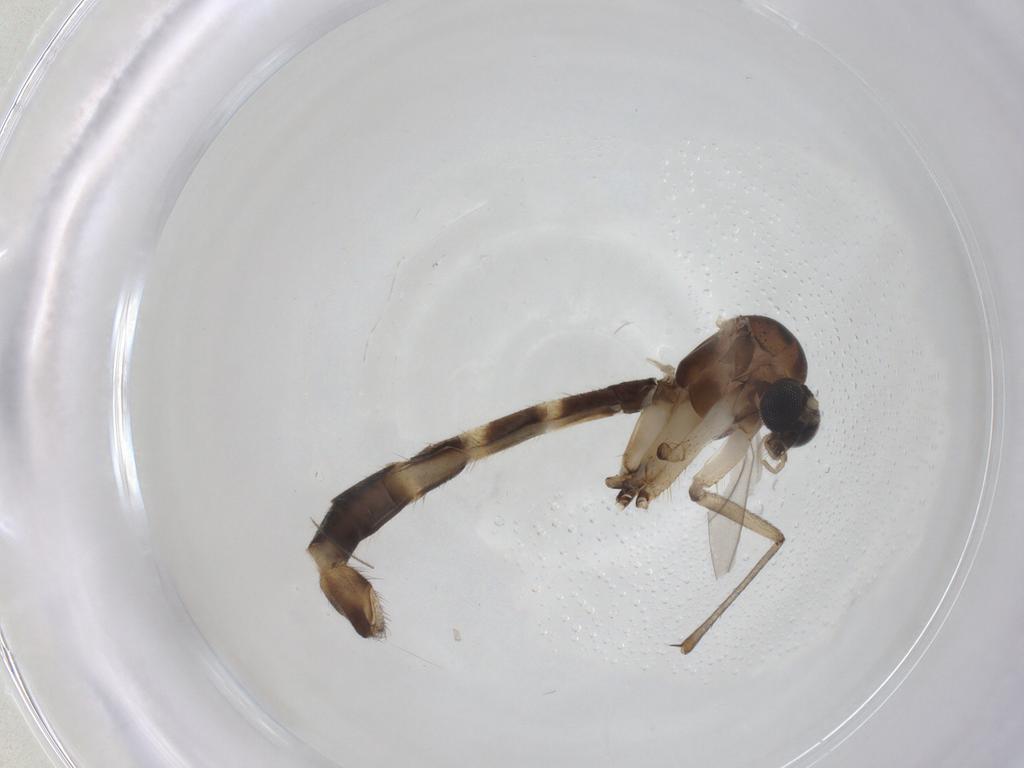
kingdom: Animalia
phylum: Arthropoda
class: Insecta
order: Diptera
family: Mycetophilidae
